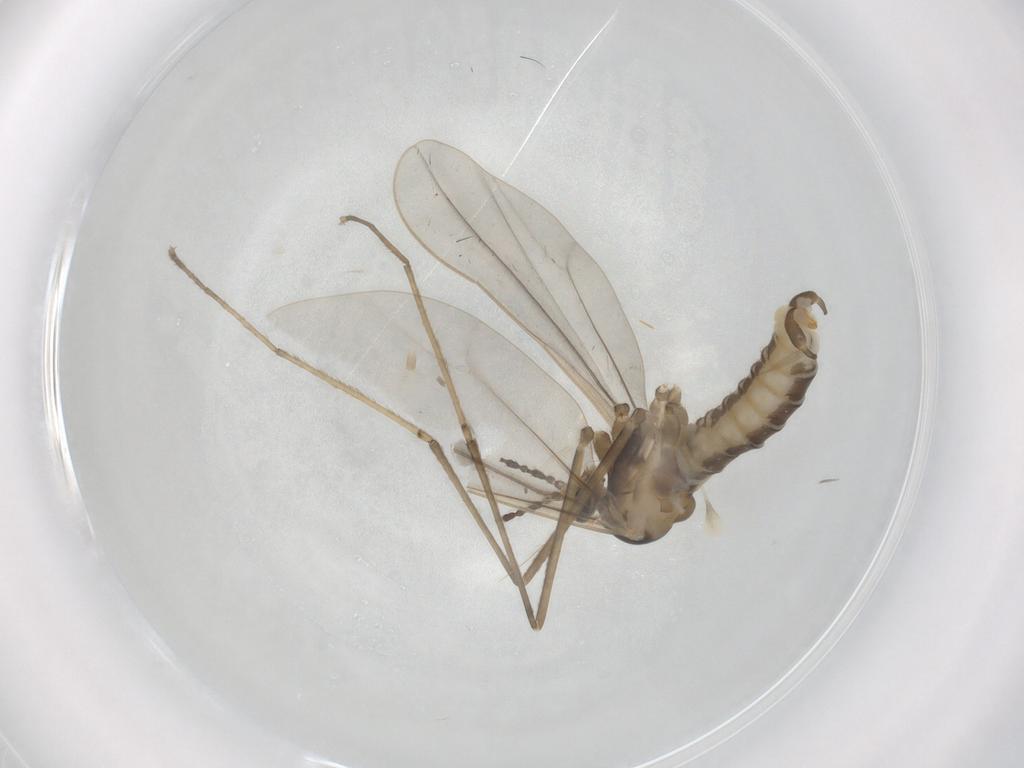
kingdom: Animalia
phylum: Arthropoda
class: Insecta
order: Diptera
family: Cecidomyiidae
